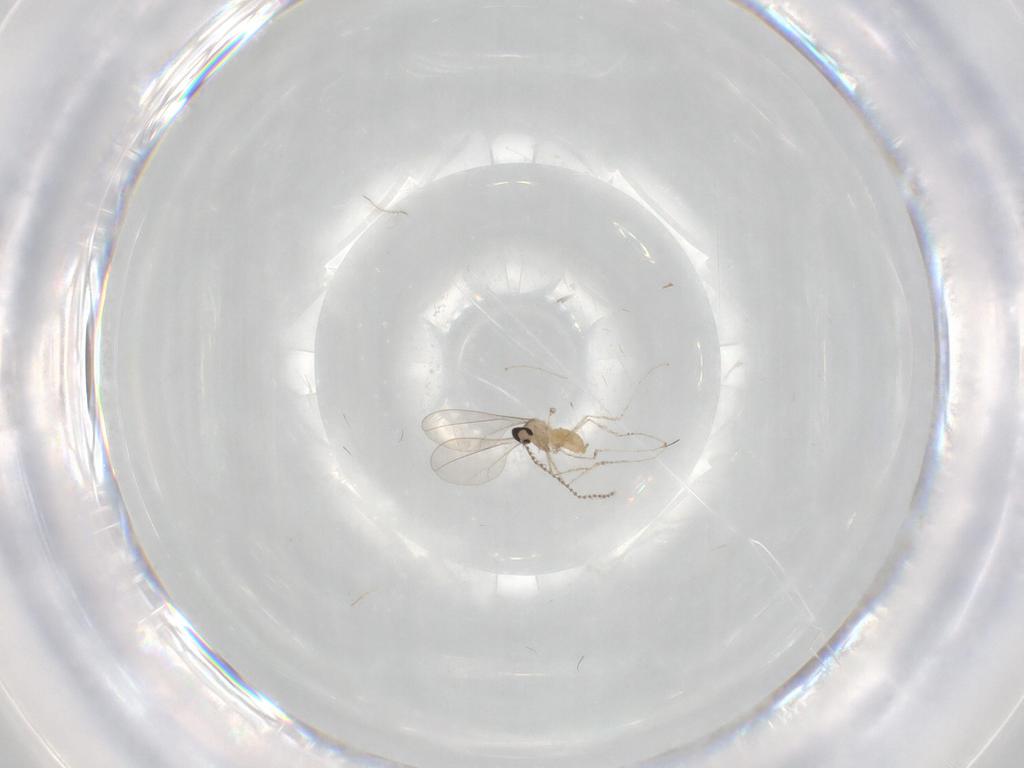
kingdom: Animalia
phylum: Arthropoda
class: Insecta
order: Diptera
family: Cecidomyiidae
